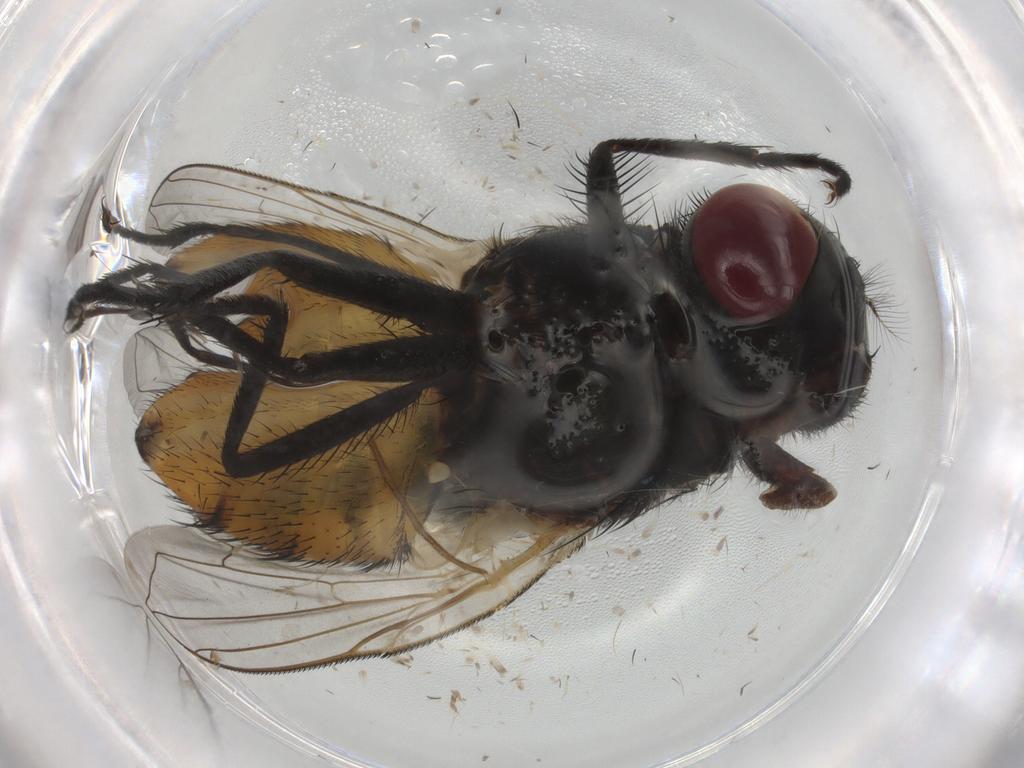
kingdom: Animalia
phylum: Arthropoda
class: Insecta
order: Diptera
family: Muscidae
